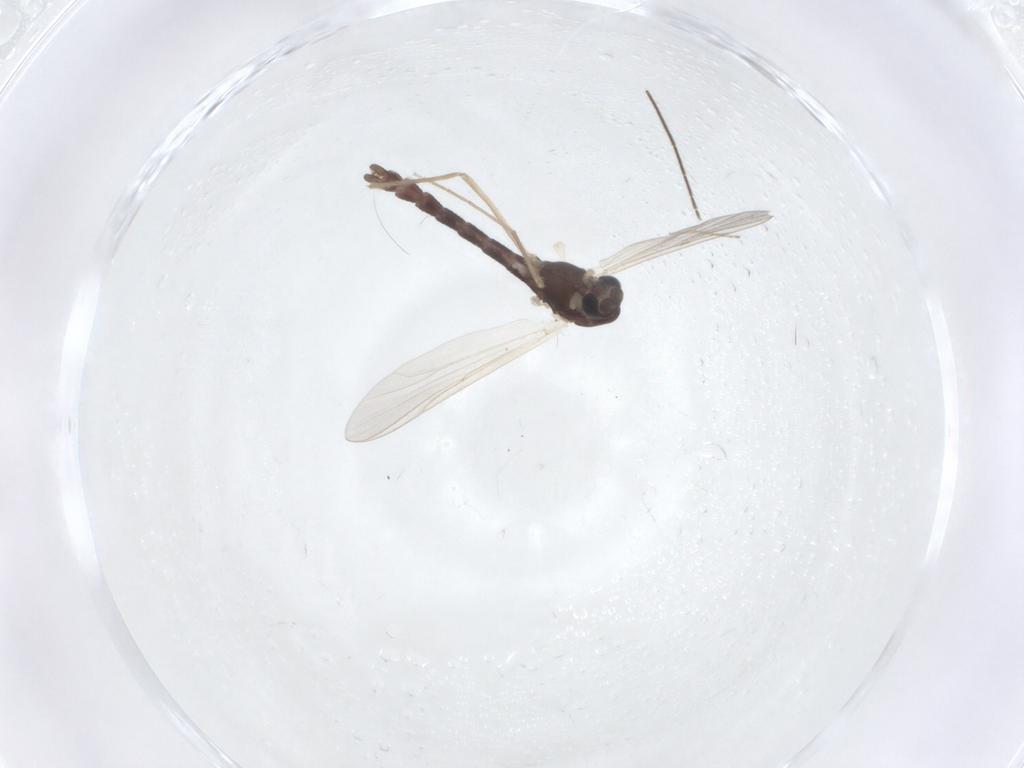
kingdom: Animalia
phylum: Arthropoda
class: Insecta
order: Diptera
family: Chironomidae
